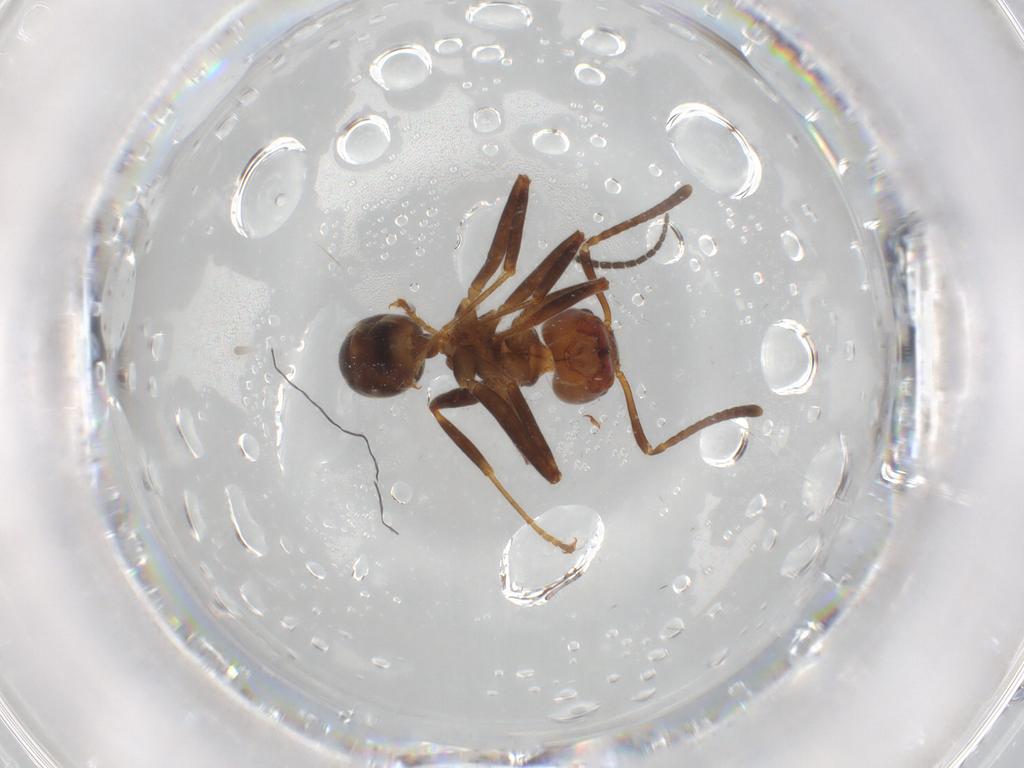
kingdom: Animalia
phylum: Arthropoda
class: Insecta
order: Hymenoptera
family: Formicidae
